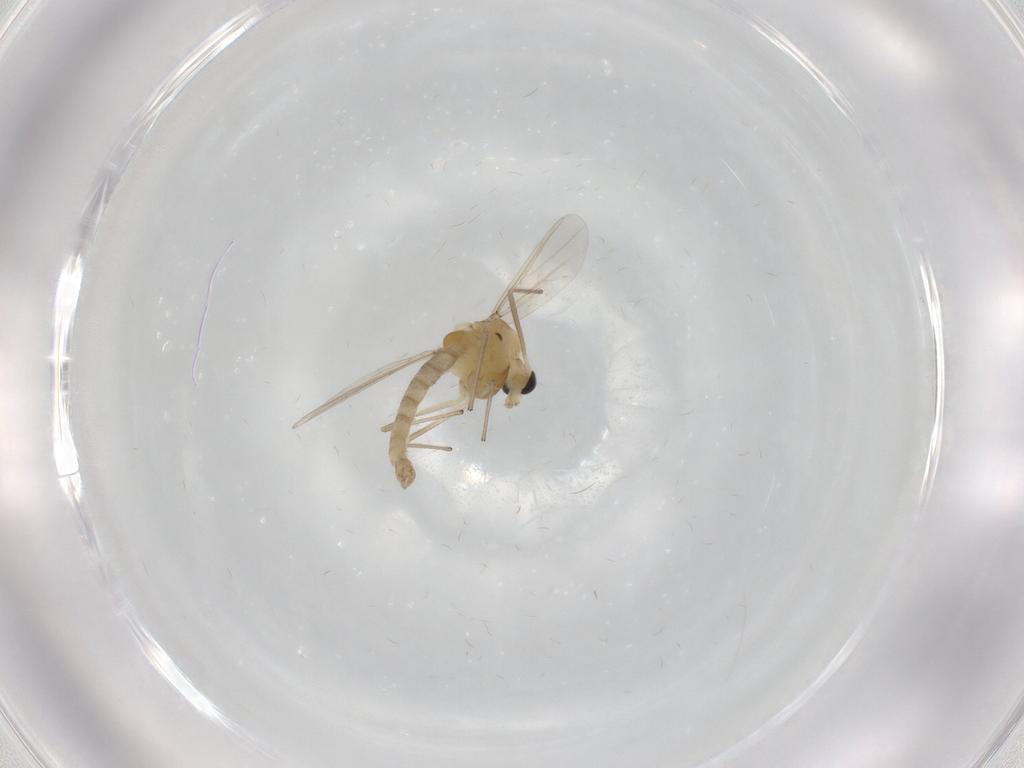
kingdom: Animalia
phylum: Arthropoda
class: Insecta
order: Diptera
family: Chironomidae
